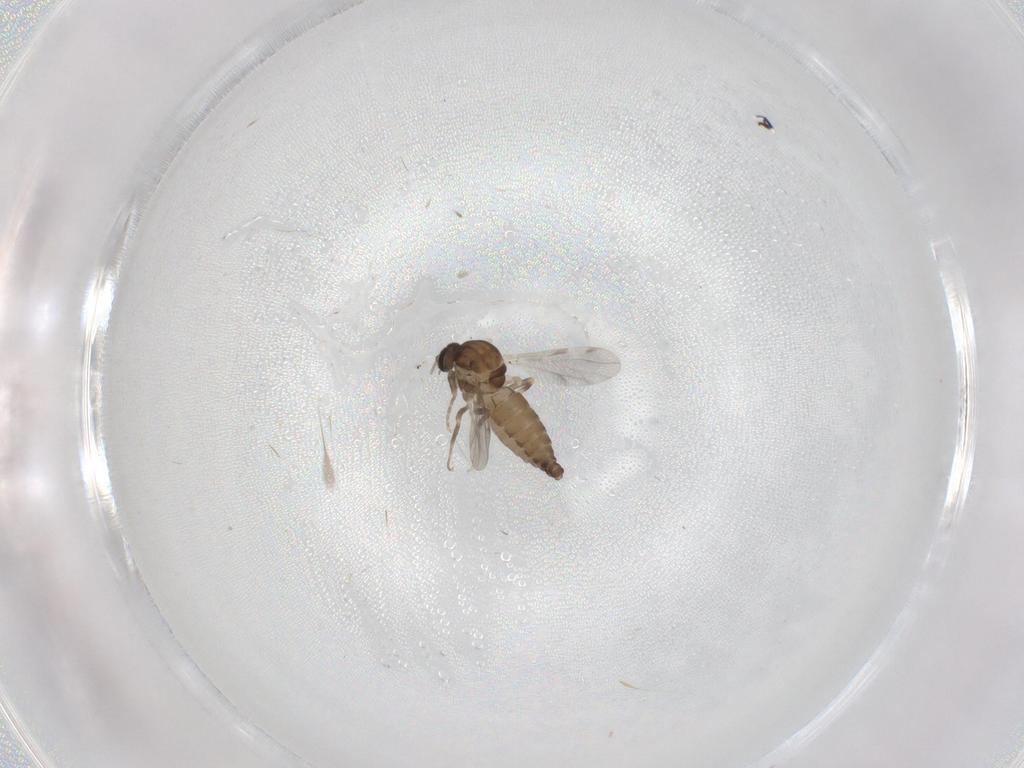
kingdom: Animalia
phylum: Arthropoda
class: Insecta
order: Diptera
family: Ceratopogonidae
